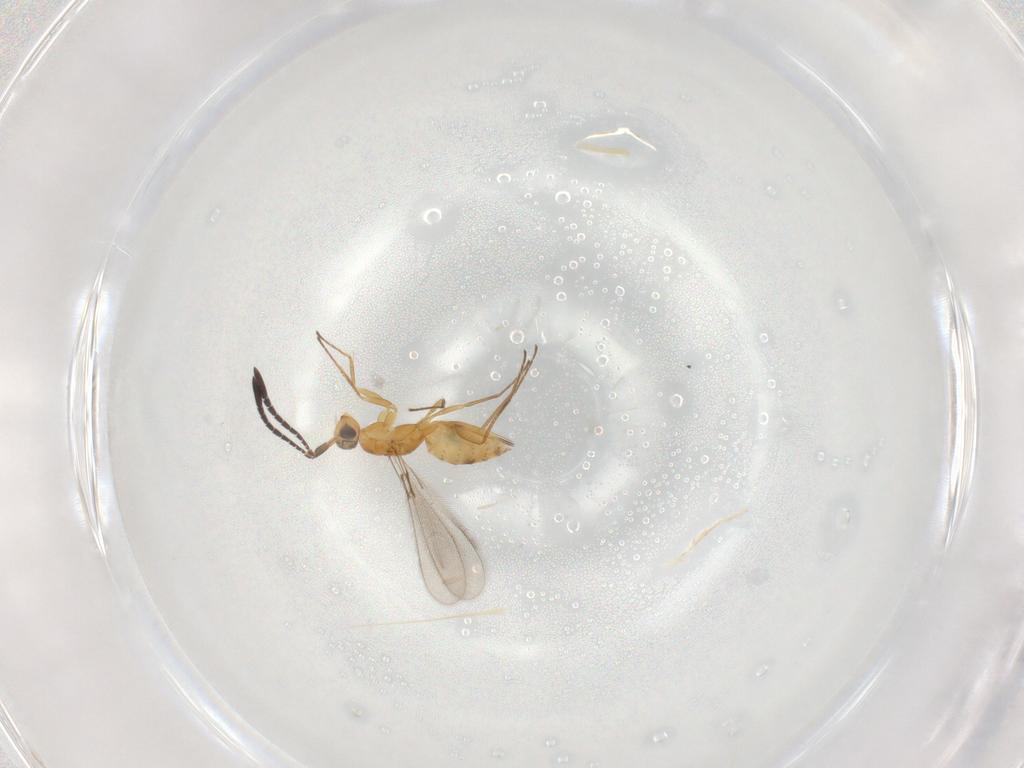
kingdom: Animalia
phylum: Arthropoda
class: Insecta
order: Hymenoptera
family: Mymaridae
